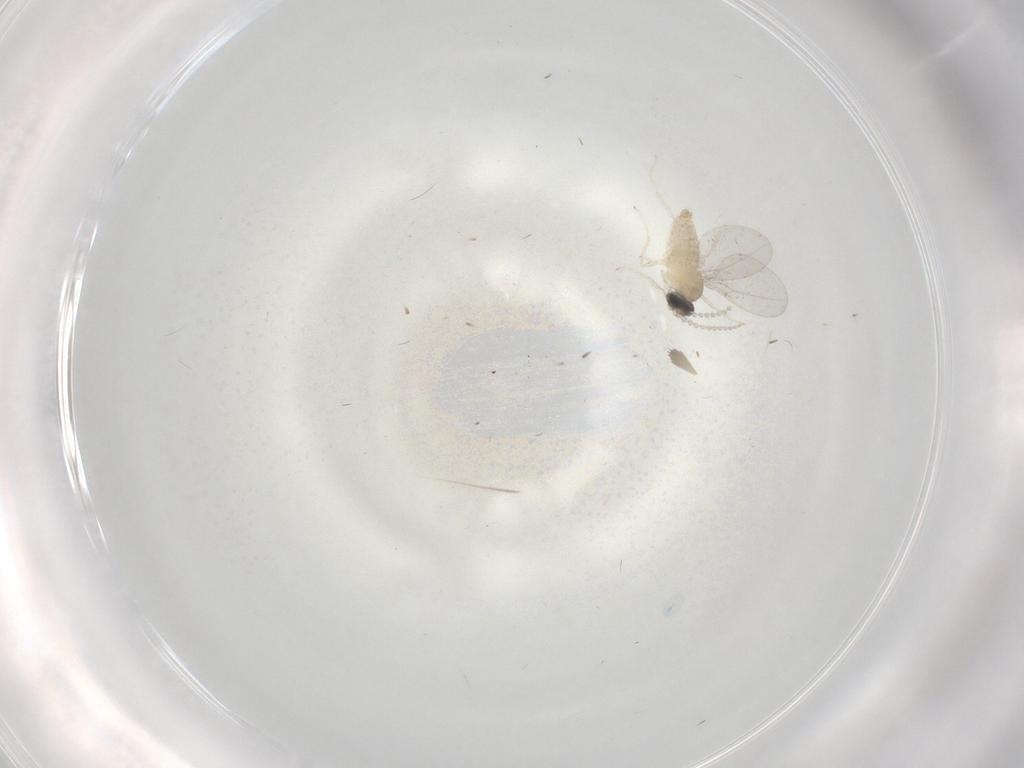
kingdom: Animalia
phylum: Arthropoda
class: Insecta
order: Diptera
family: Cecidomyiidae
